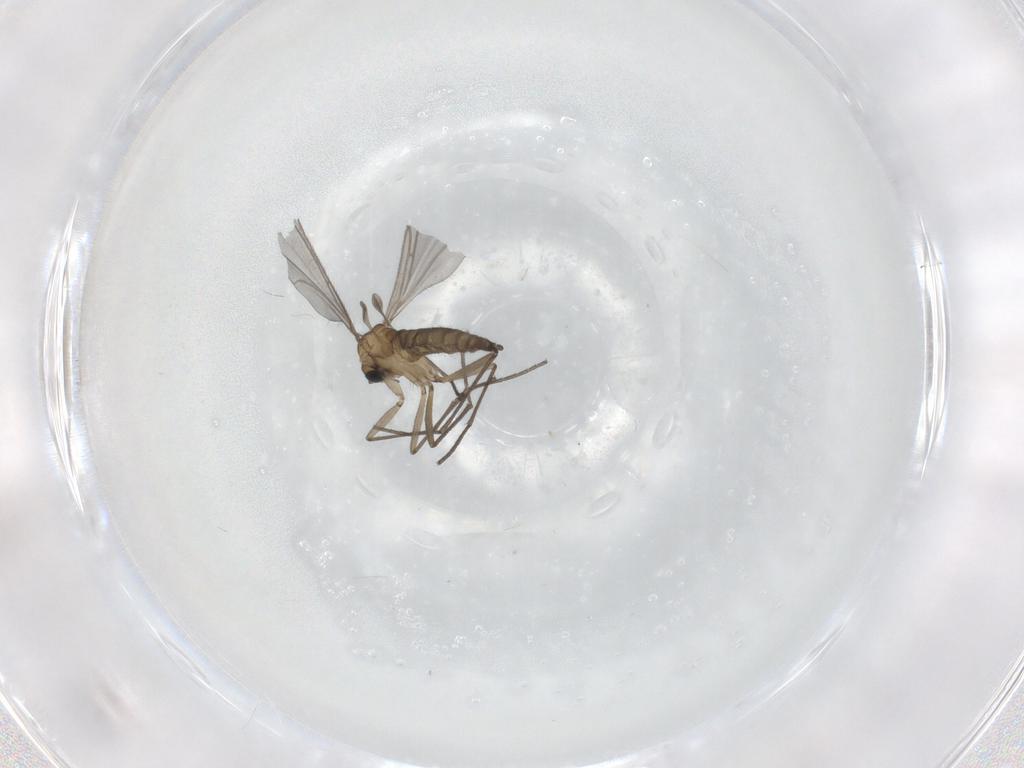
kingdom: Animalia
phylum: Arthropoda
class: Insecta
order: Diptera
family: Sciaridae
